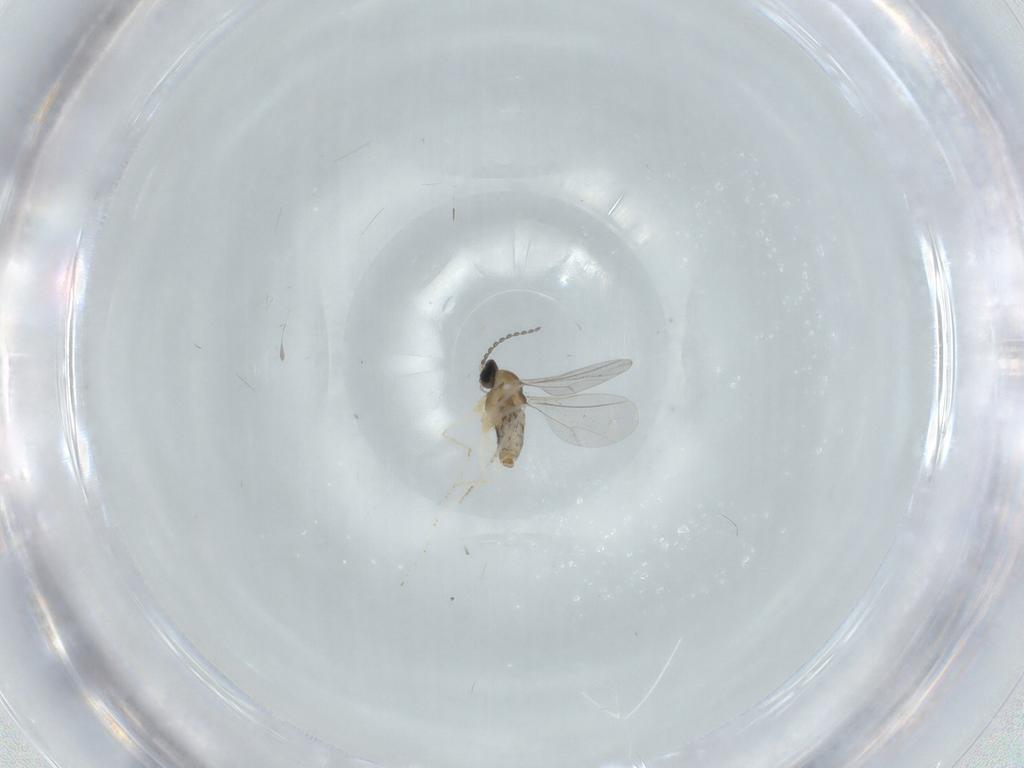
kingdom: Animalia
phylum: Arthropoda
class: Insecta
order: Diptera
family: Cecidomyiidae
